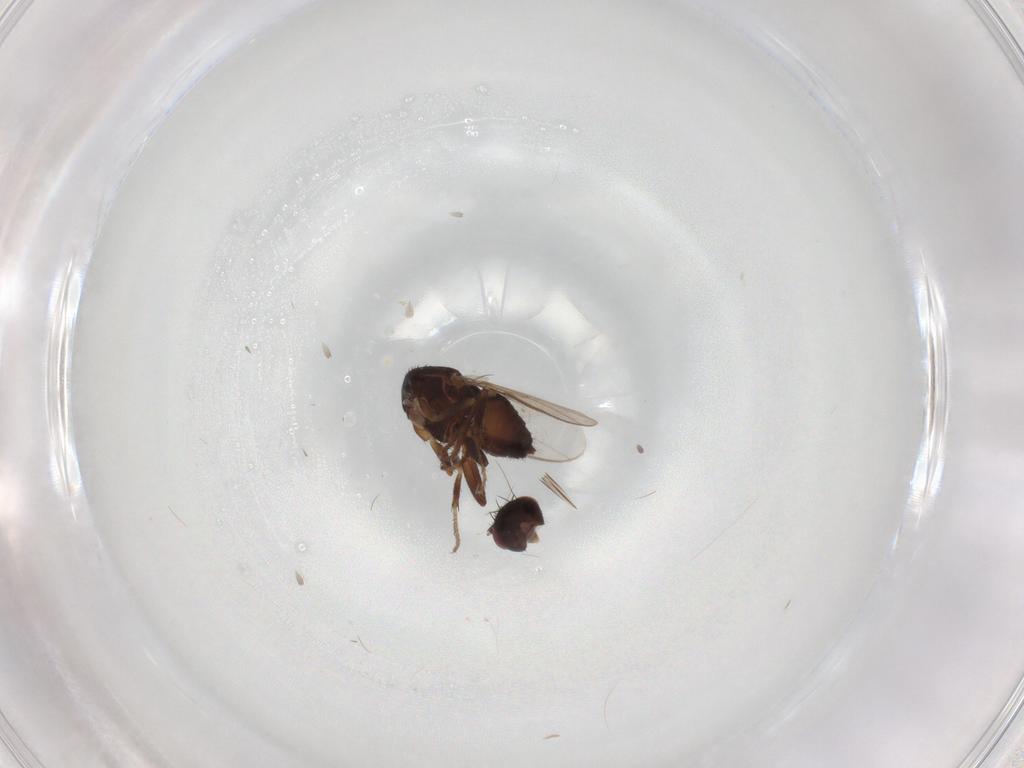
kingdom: Animalia
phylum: Arthropoda
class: Insecta
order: Diptera
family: Sphaeroceridae
